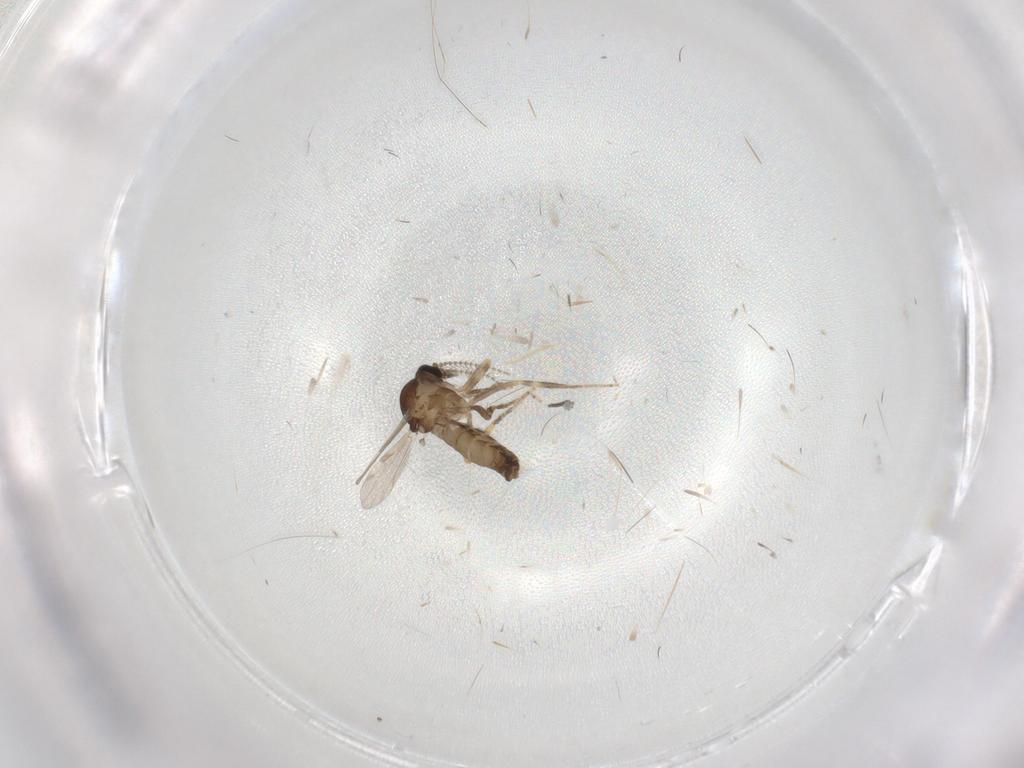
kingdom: Animalia
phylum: Arthropoda
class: Insecta
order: Diptera
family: Ceratopogonidae
